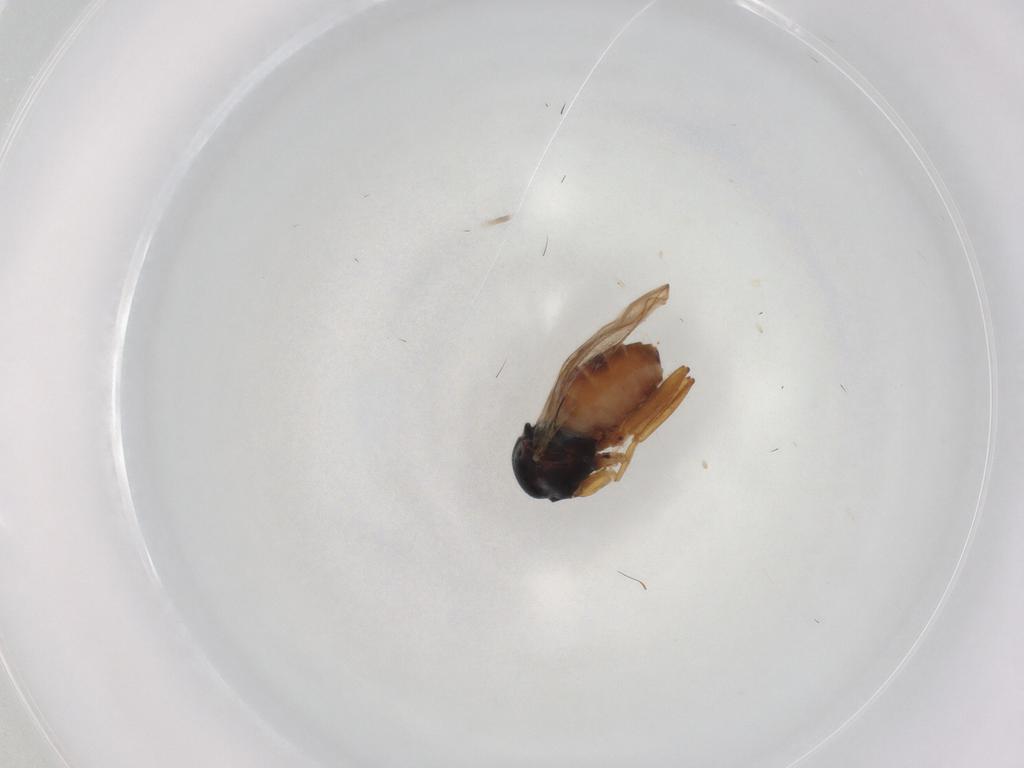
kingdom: Animalia
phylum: Arthropoda
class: Insecta
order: Diptera
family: Hybotidae
